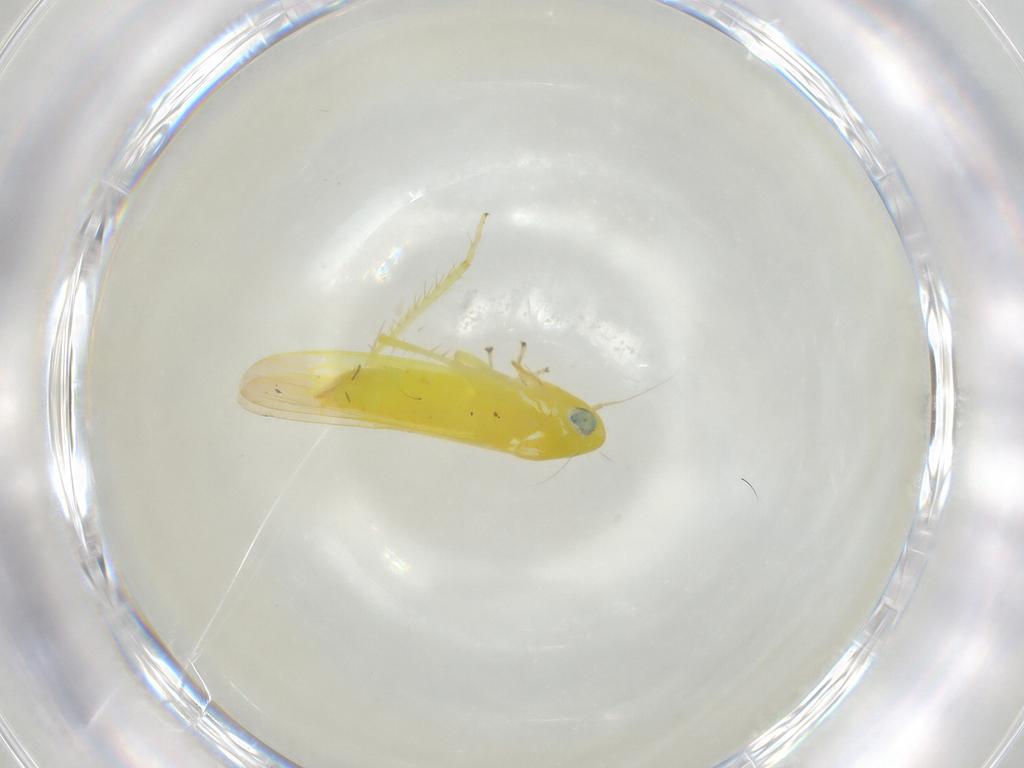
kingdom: Animalia
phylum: Arthropoda
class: Insecta
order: Hemiptera
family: Cicadellidae
